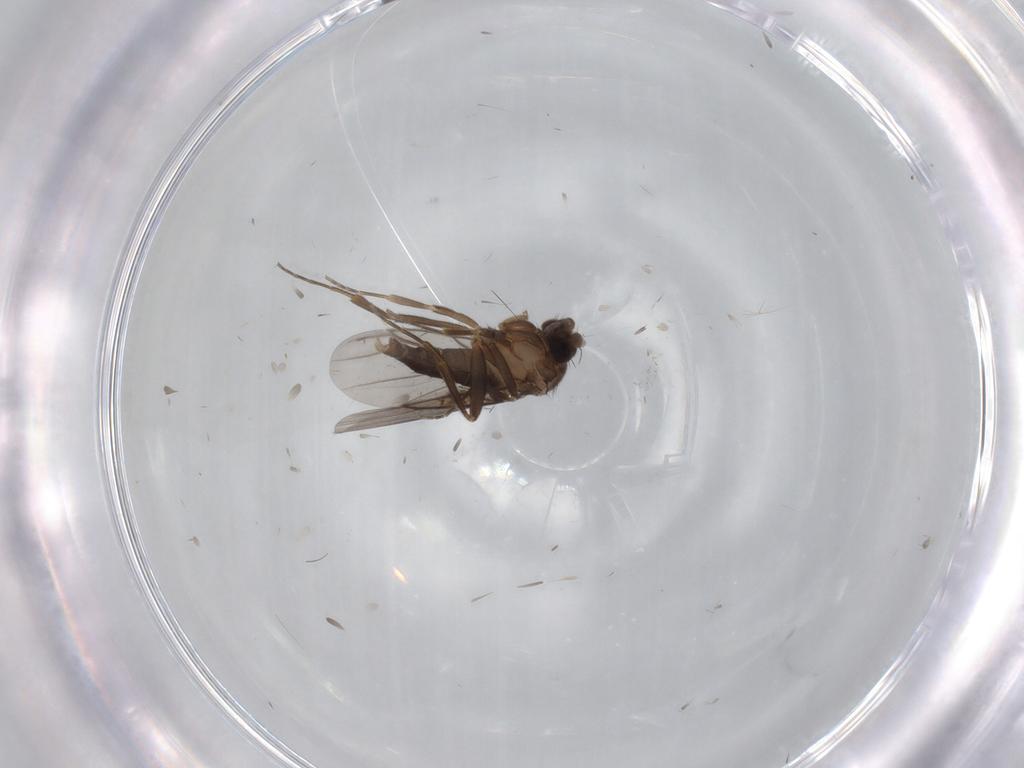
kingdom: Animalia
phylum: Arthropoda
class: Insecta
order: Diptera
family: Phoridae
